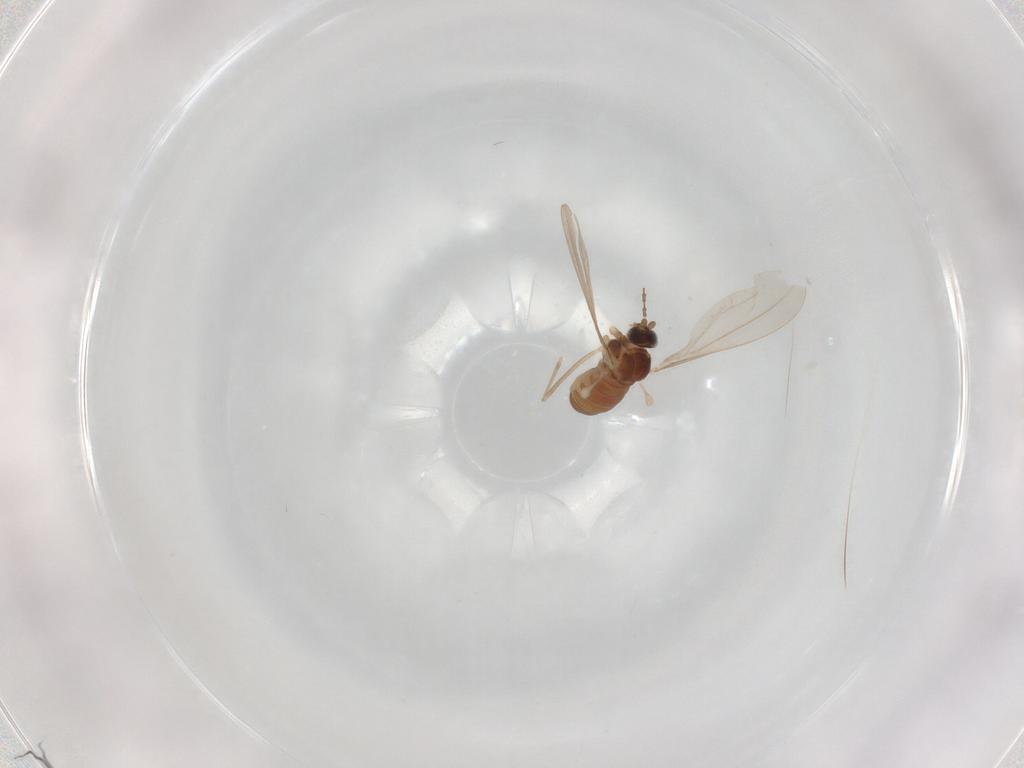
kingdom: Animalia
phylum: Arthropoda
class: Insecta
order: Diptera
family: Cecidomyiidae
